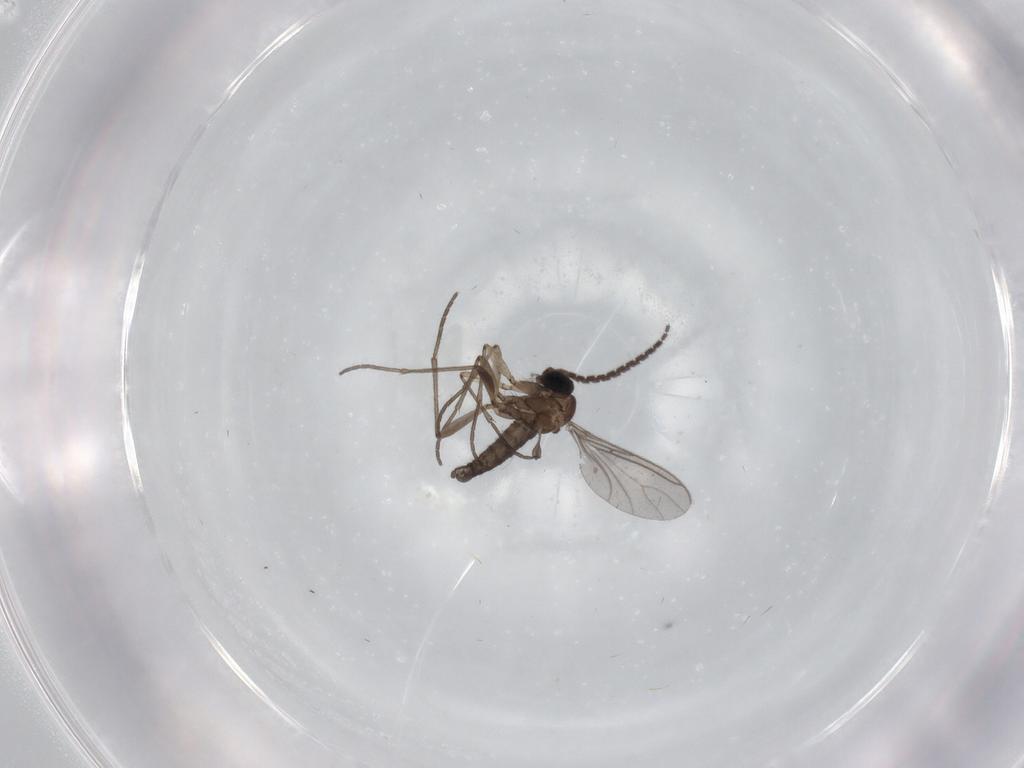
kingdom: Animalia
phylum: Arthropoda
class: Insecta
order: Diptera
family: Sciaridae
